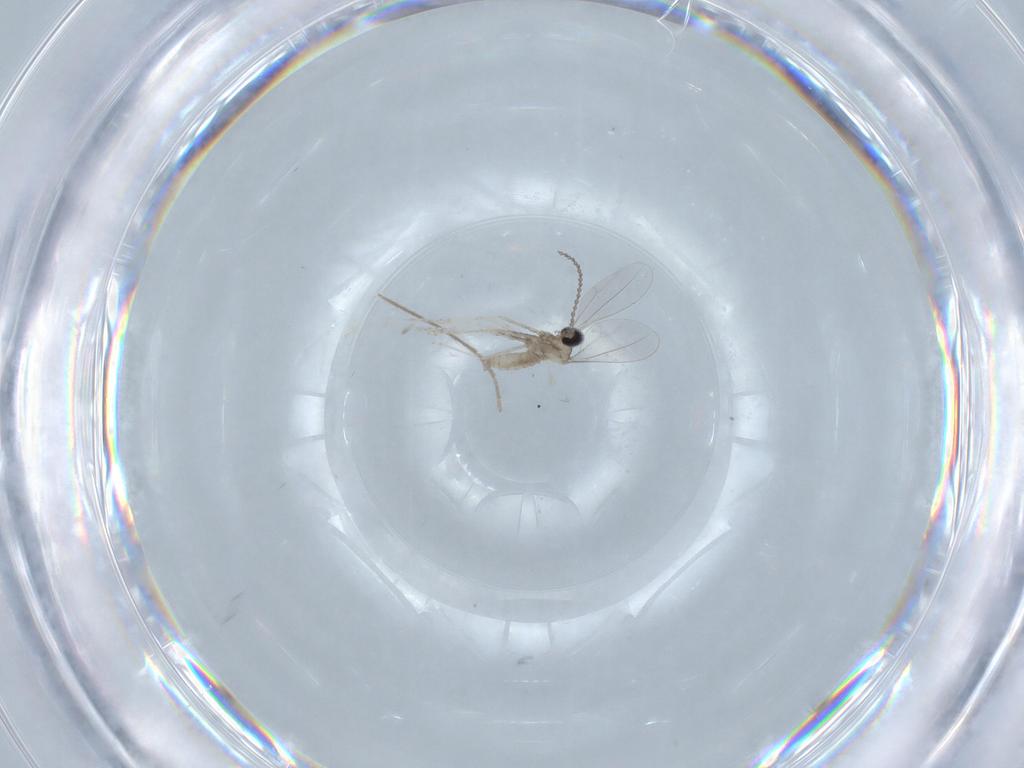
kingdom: Animalia
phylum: Arthropoda
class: Insecta
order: Diptera
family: Chironomidae
